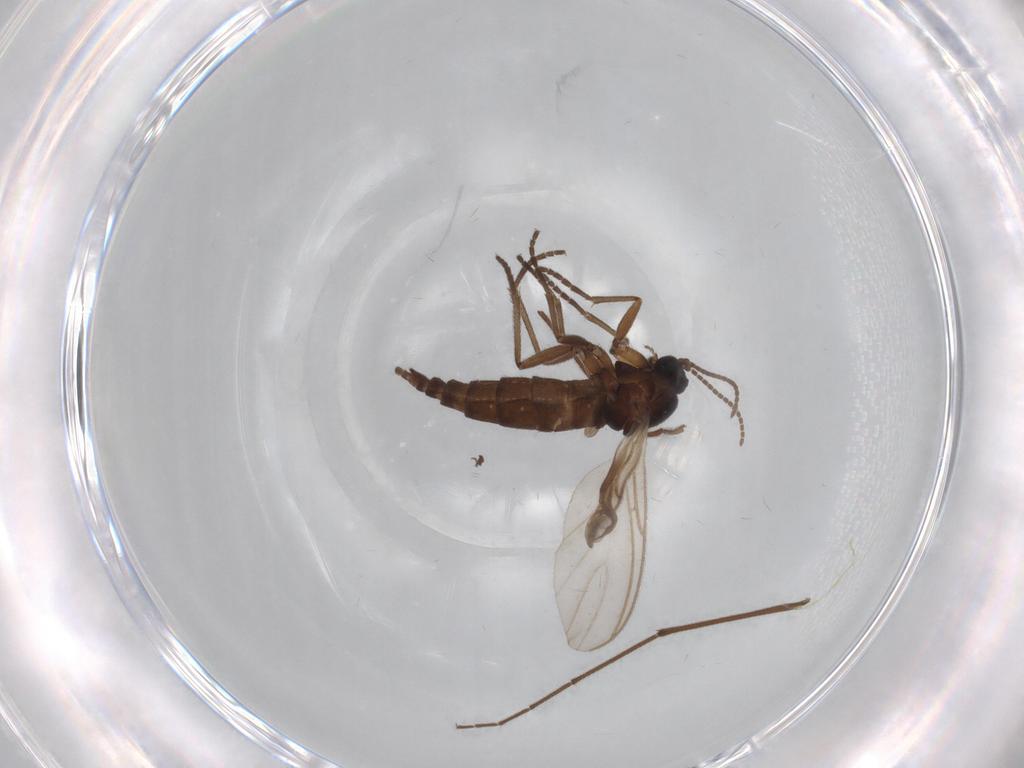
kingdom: Animalia
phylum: Arthropoda
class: Insecta
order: Diptera
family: Sciaridae
